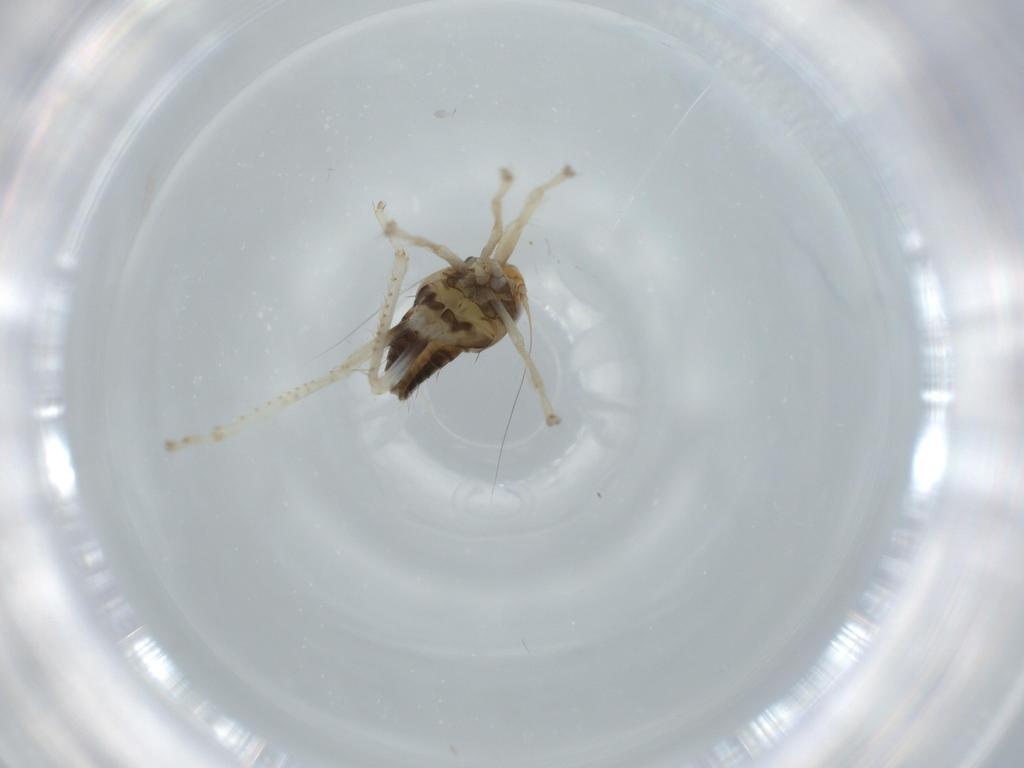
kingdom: Animalia
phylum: Arthropoda
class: Insecta
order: Hemiptera
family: Cicadellidae
